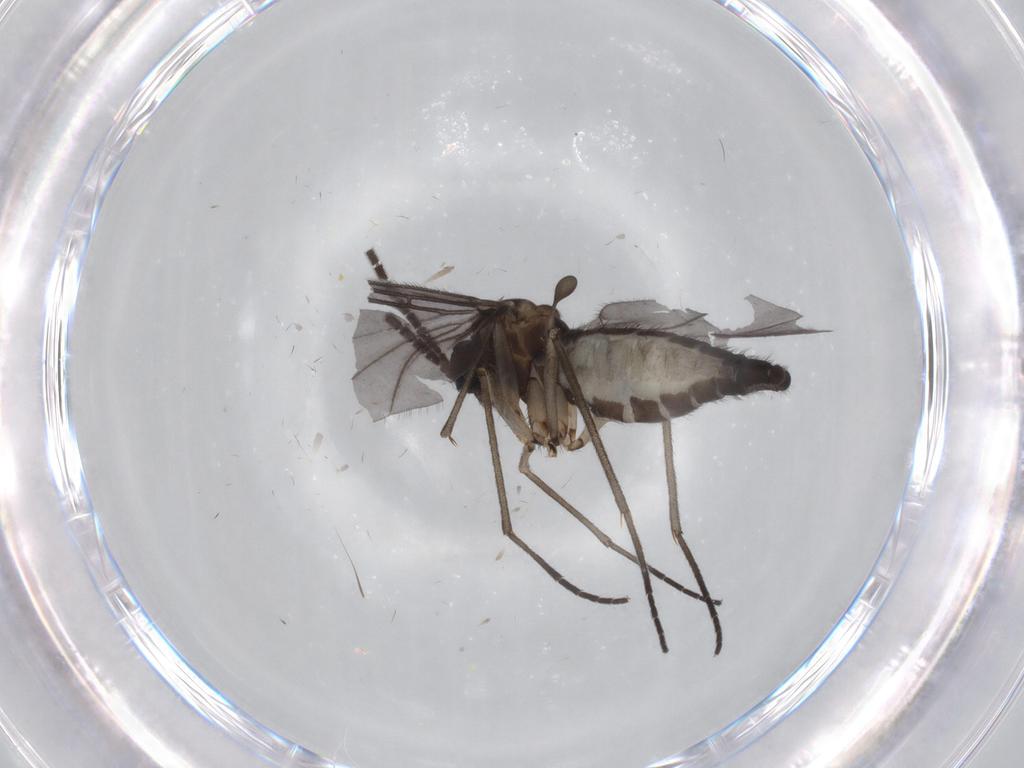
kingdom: Animalia
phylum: Arthropoda
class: Insecta
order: Diptera
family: Sciaridae
